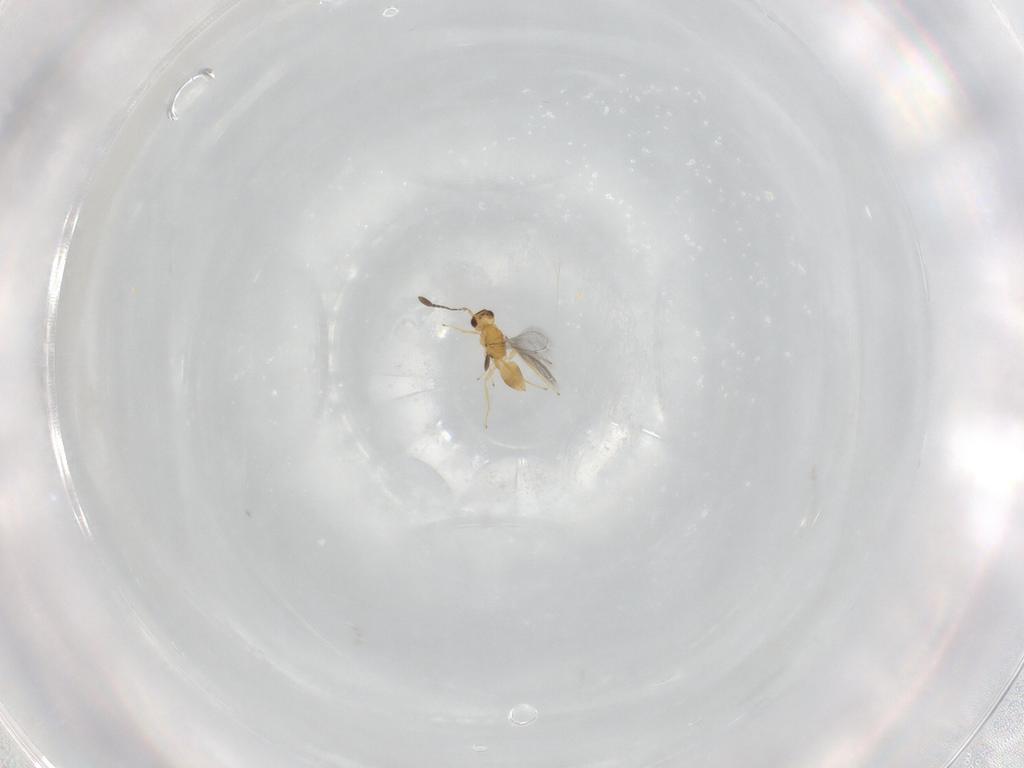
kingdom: Animalia
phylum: Arthropoda
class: Insecta
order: Hymenoptera
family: Mymaridae
